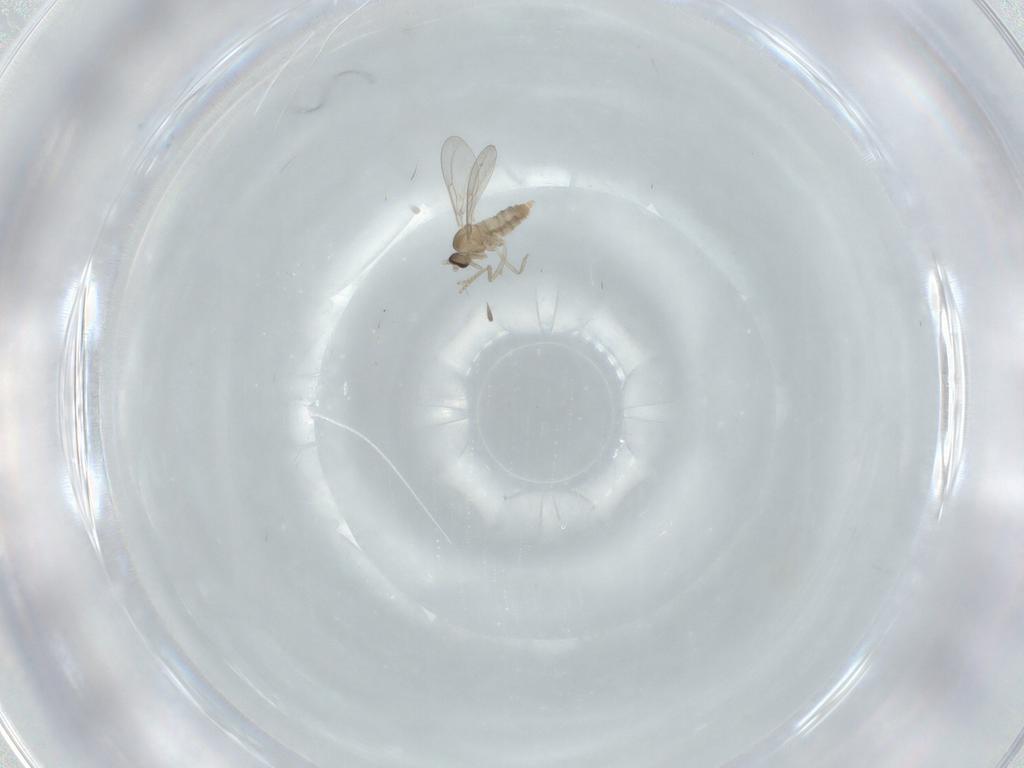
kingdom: Animalia
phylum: Arthropoda
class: Insecta
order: Diptera
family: Cecidomyiidae
